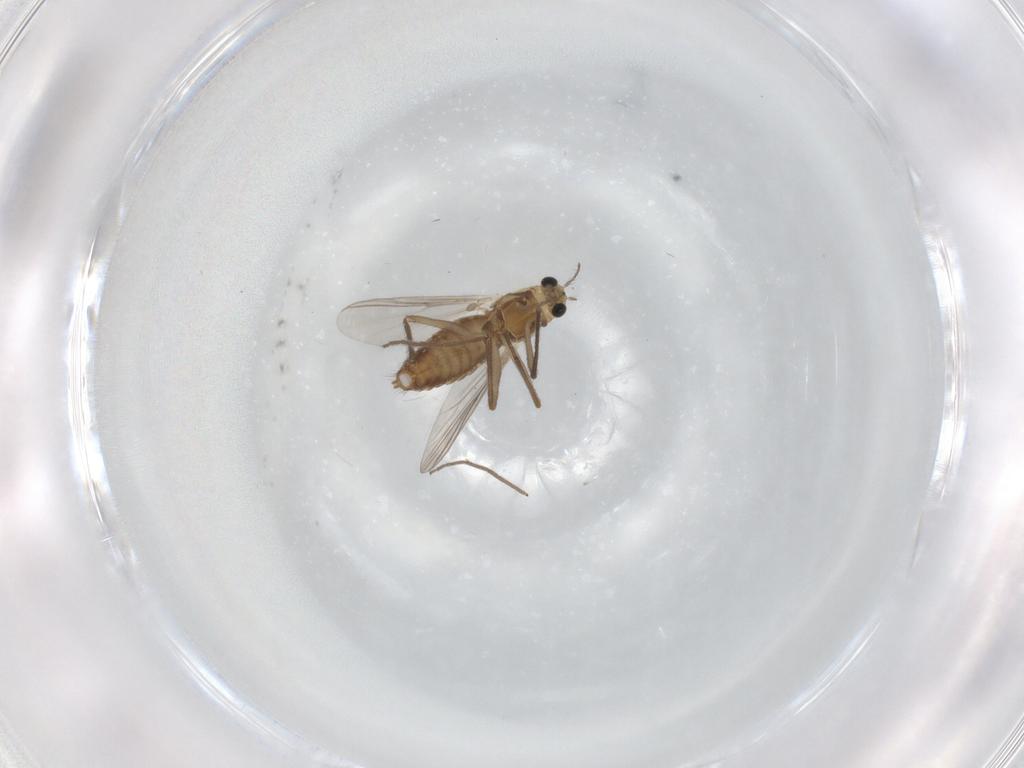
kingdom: Animalia
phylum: Arthropoda
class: Insecta
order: Diptera
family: Chironomidae
